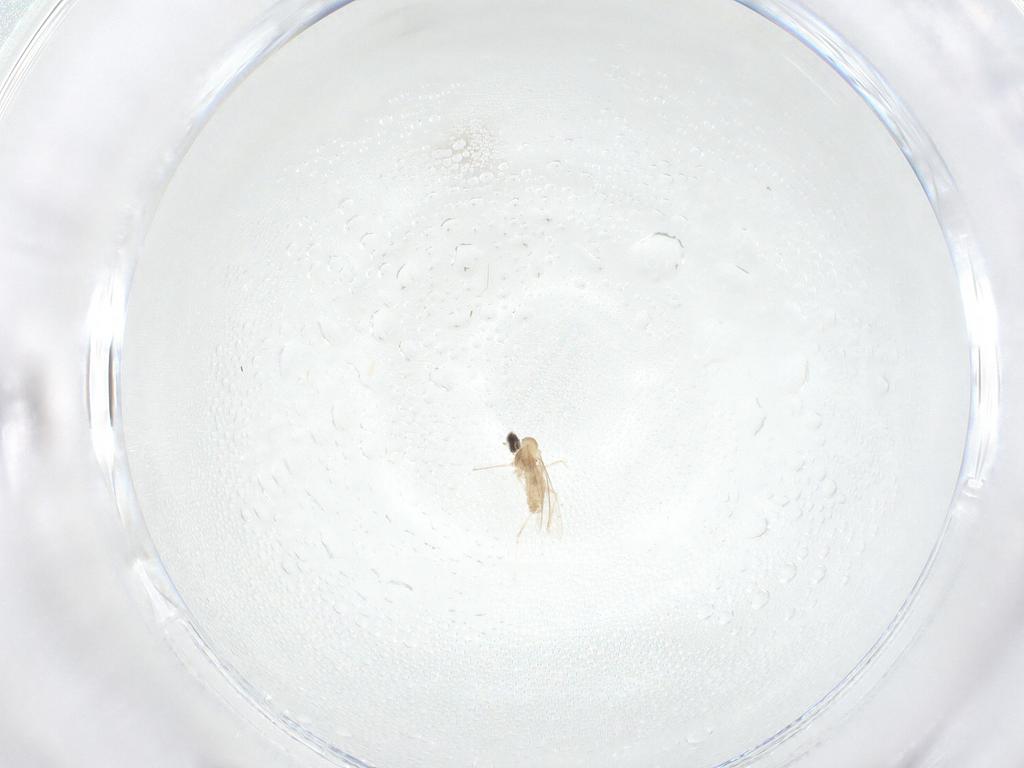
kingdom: Animalia
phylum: Arthropoda
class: Insecta
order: Diptera
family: Cecidomyiidae
